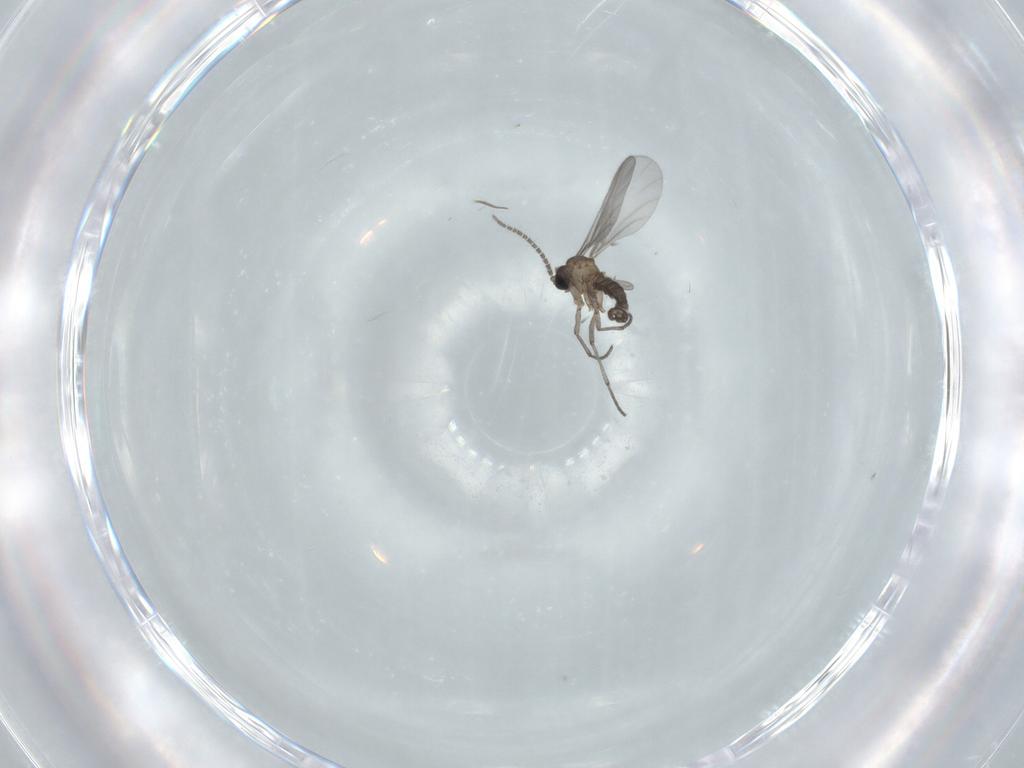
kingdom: Animalia
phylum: Arthropoda
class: Insecta
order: Diptera
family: Sciaridae
